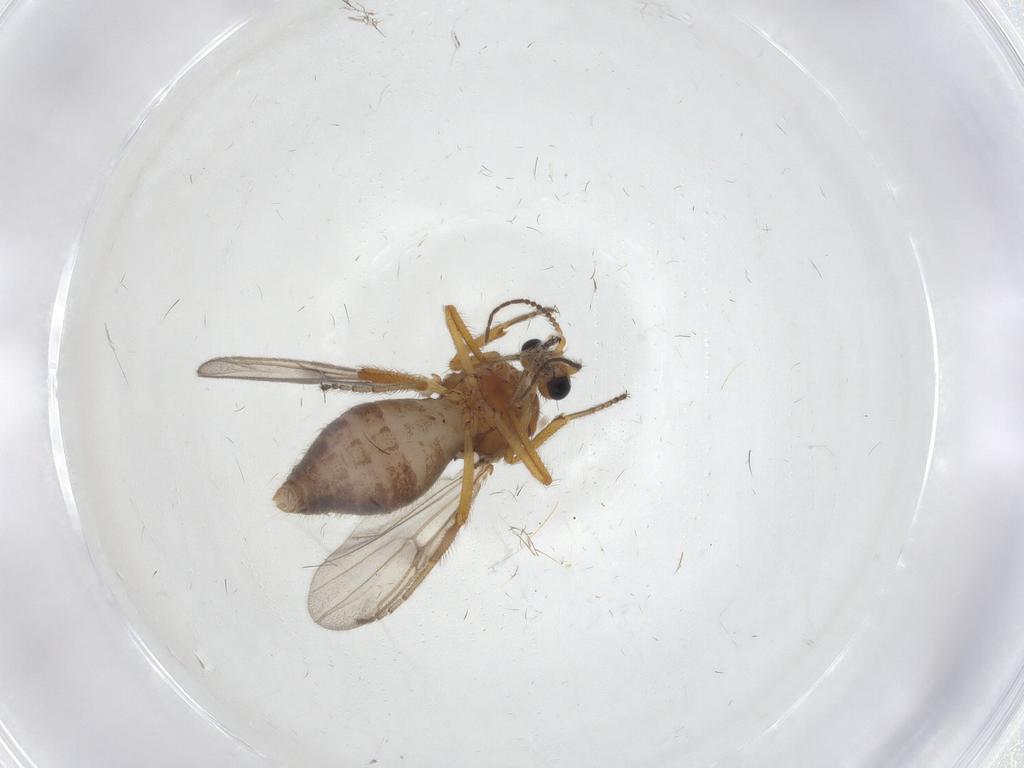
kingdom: Animalia
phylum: Arthropoda
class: Insecta
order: Diptera
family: Ceratopogonidae
